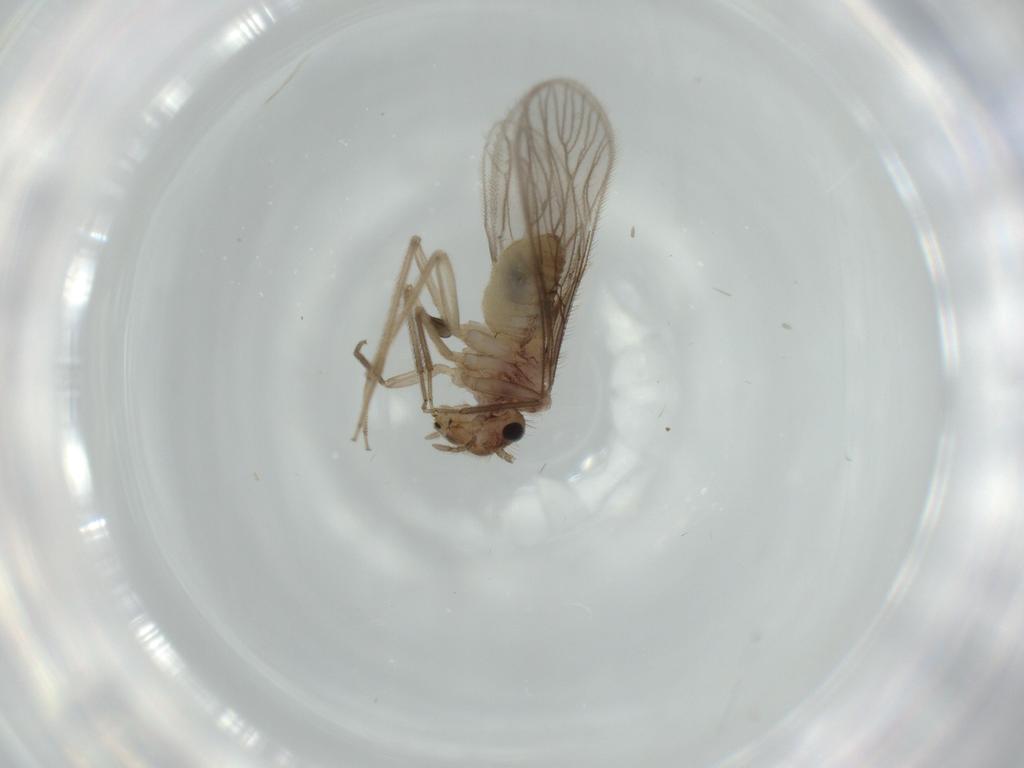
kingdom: Animalia
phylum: Arthropoda
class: Insecta
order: Psocodea
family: Cladiopsocidae
